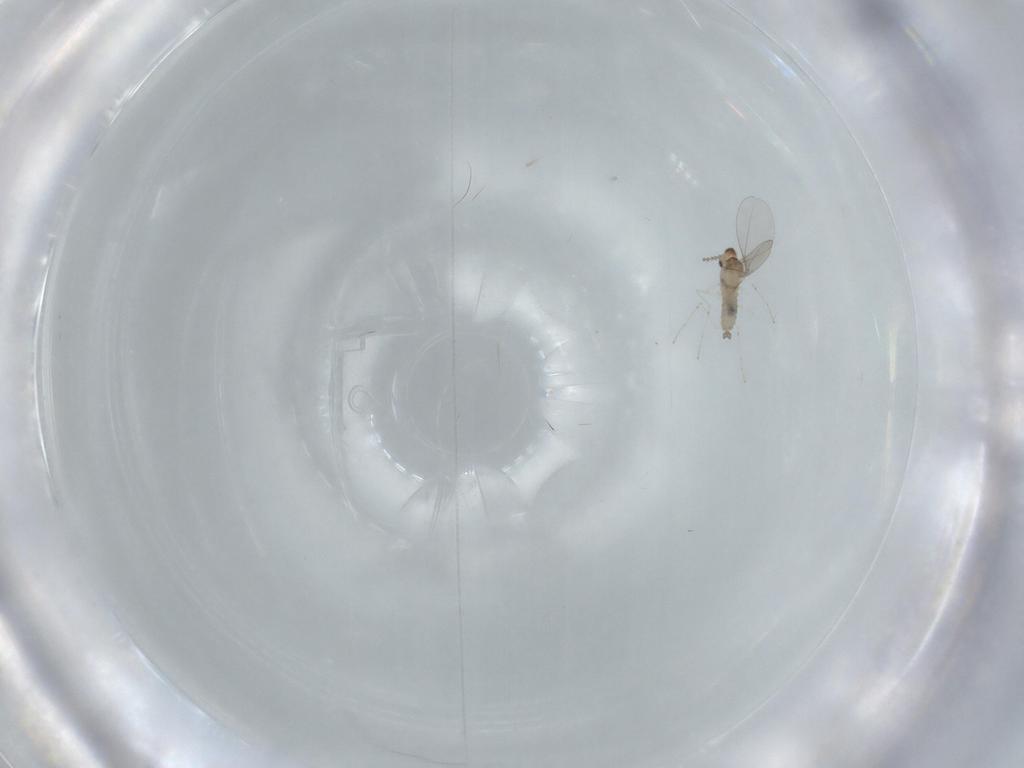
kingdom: Animalia
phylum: Arthropoda
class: Insecta
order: Diptera
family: Cecidomyiidae
